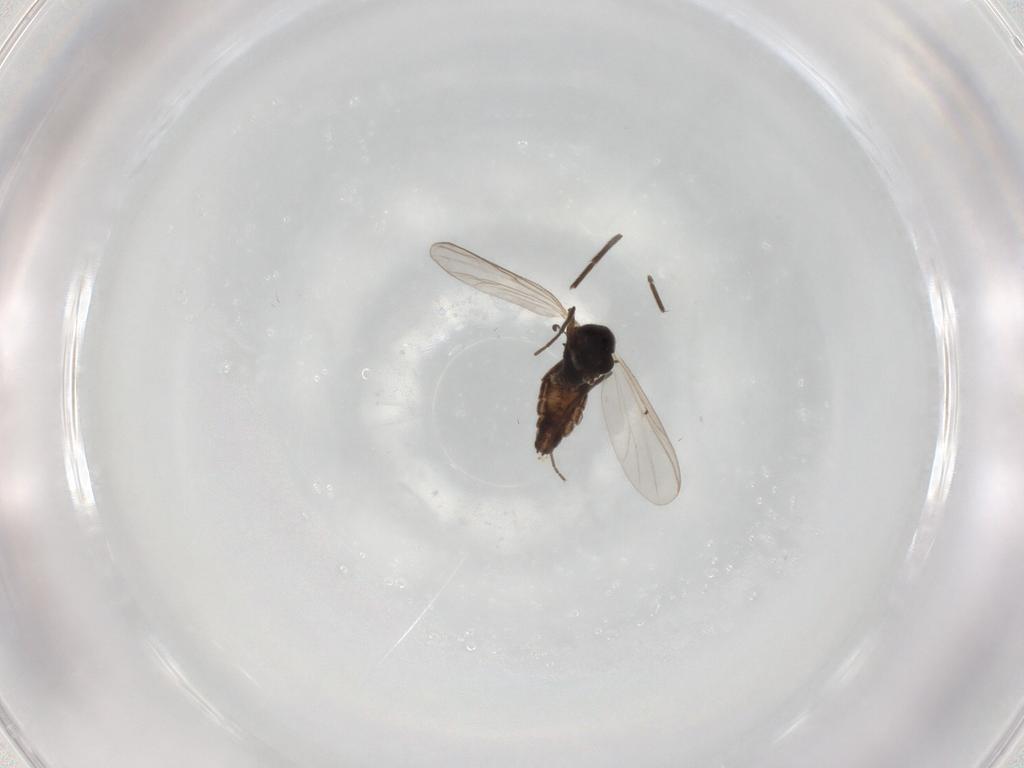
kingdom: Animalia
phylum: Arthropoda
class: Insecta
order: Diptera
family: Chironomidae
